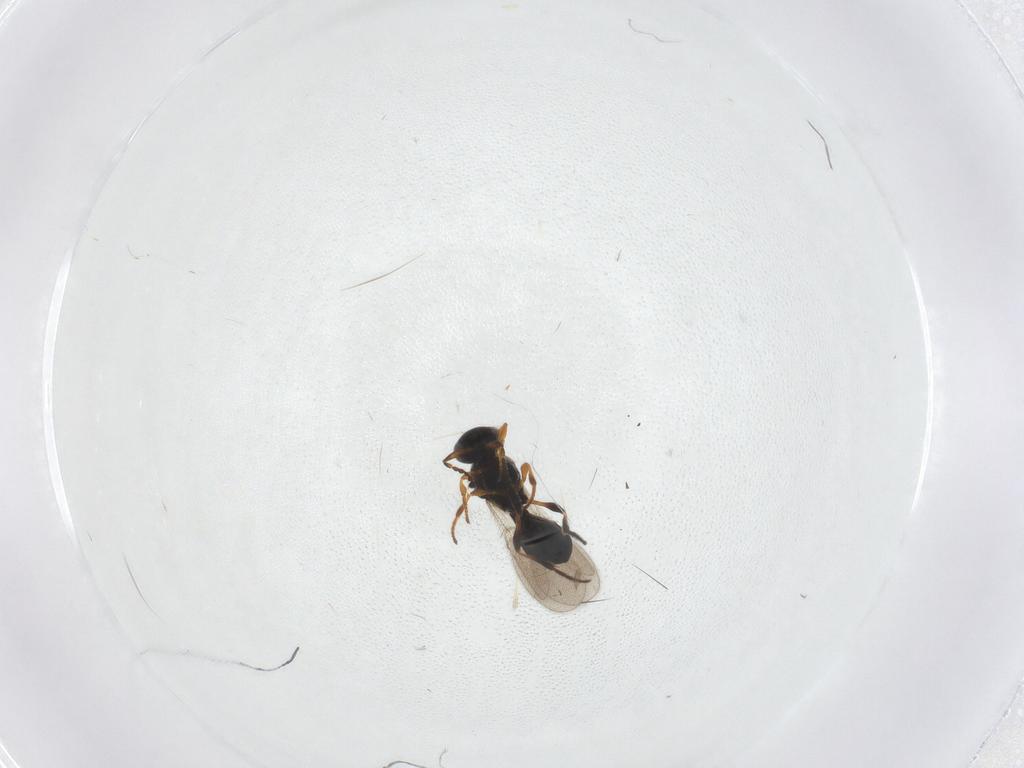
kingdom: Animalia
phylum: Arthropoda
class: Insecta
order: Hymenoptera
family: Platygastridae
